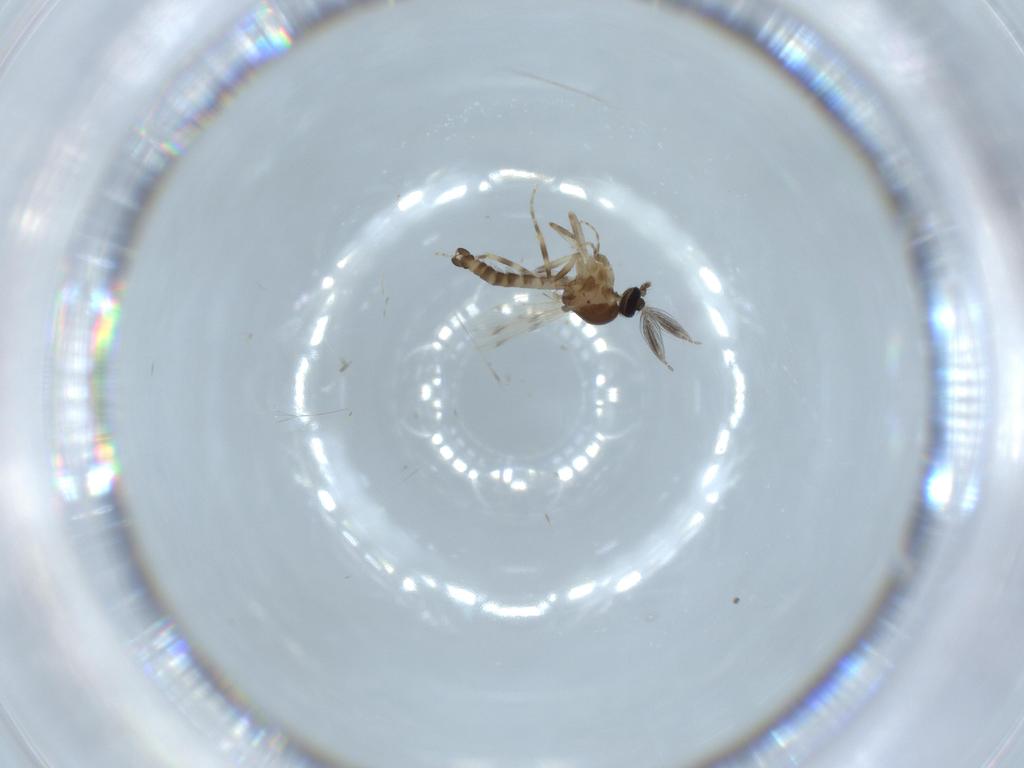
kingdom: Animalia
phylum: Arthropoda
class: Insecta
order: Diptera
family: Ceratopogonidae
